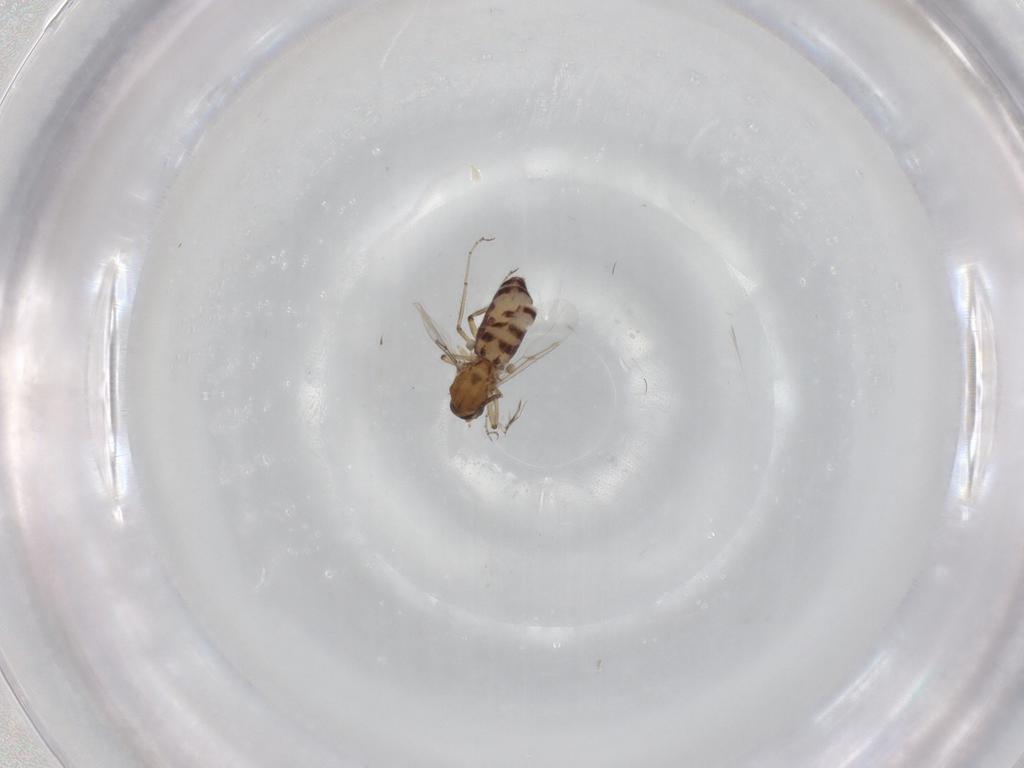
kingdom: Animalia
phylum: Arthropoda
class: Insecta
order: Diptera
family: Ceratopogonidae
